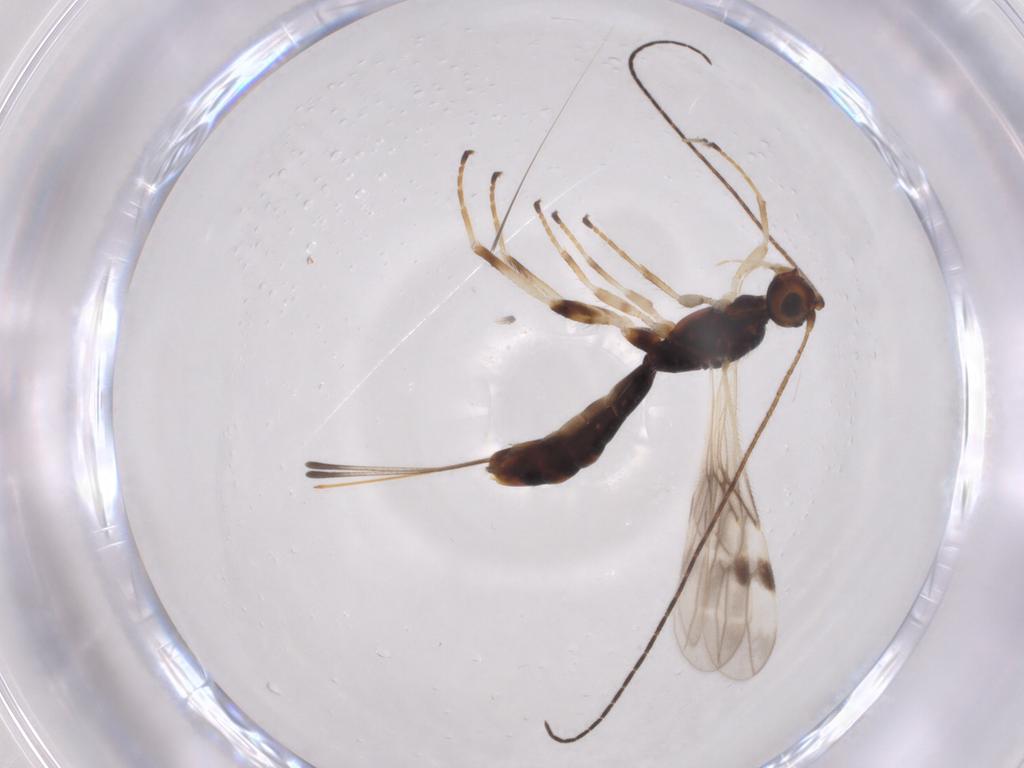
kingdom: Animalia
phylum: Arthropoda
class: Insecta
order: Hymenoptera
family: Braconidae
